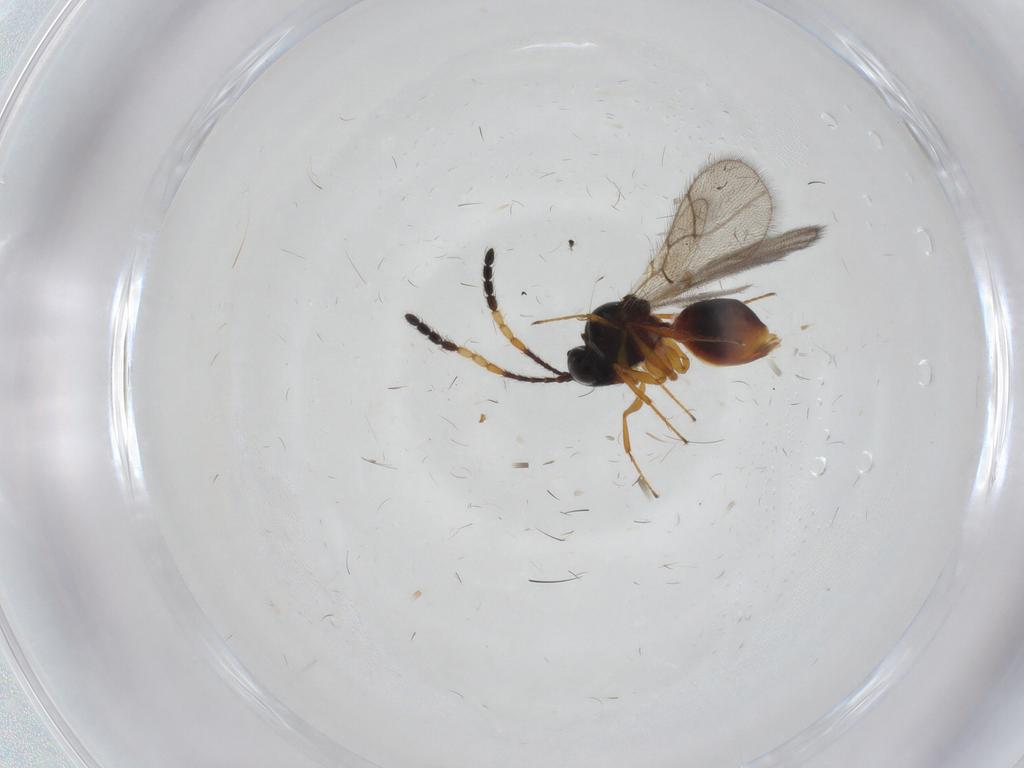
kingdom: Animalia
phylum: Arthropoda
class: Insecta
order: Hymenoptera
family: Figitidae
